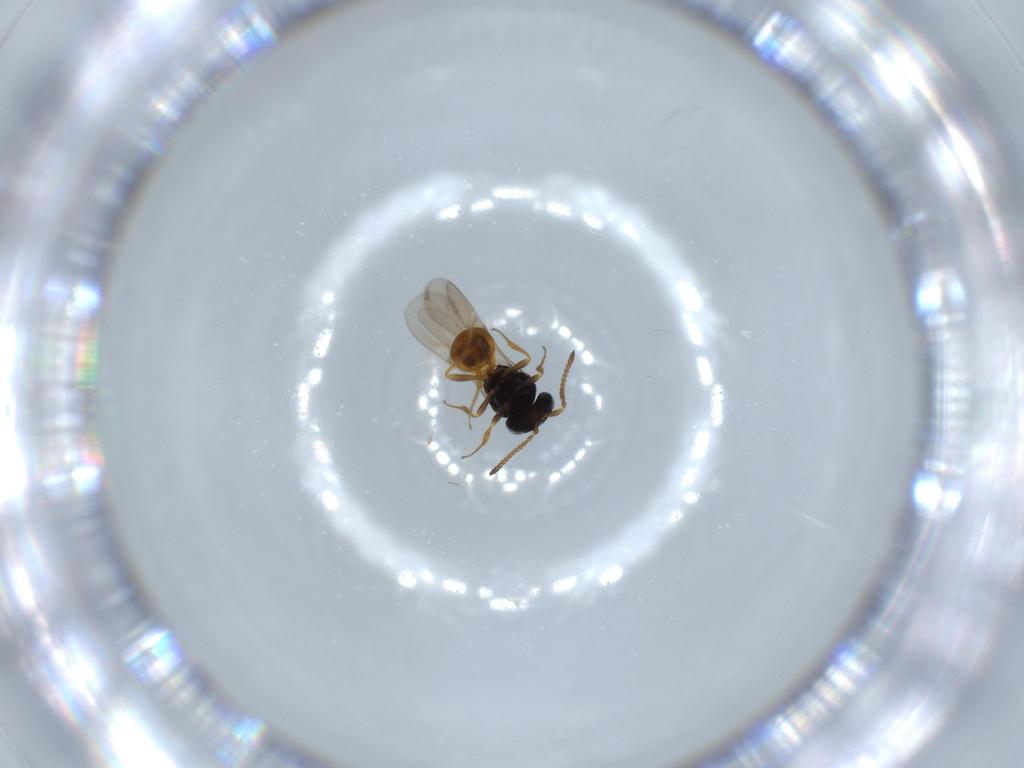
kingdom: Animalia
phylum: Arthropoda
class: Insecta
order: Hymenoptera
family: Scelionidae
